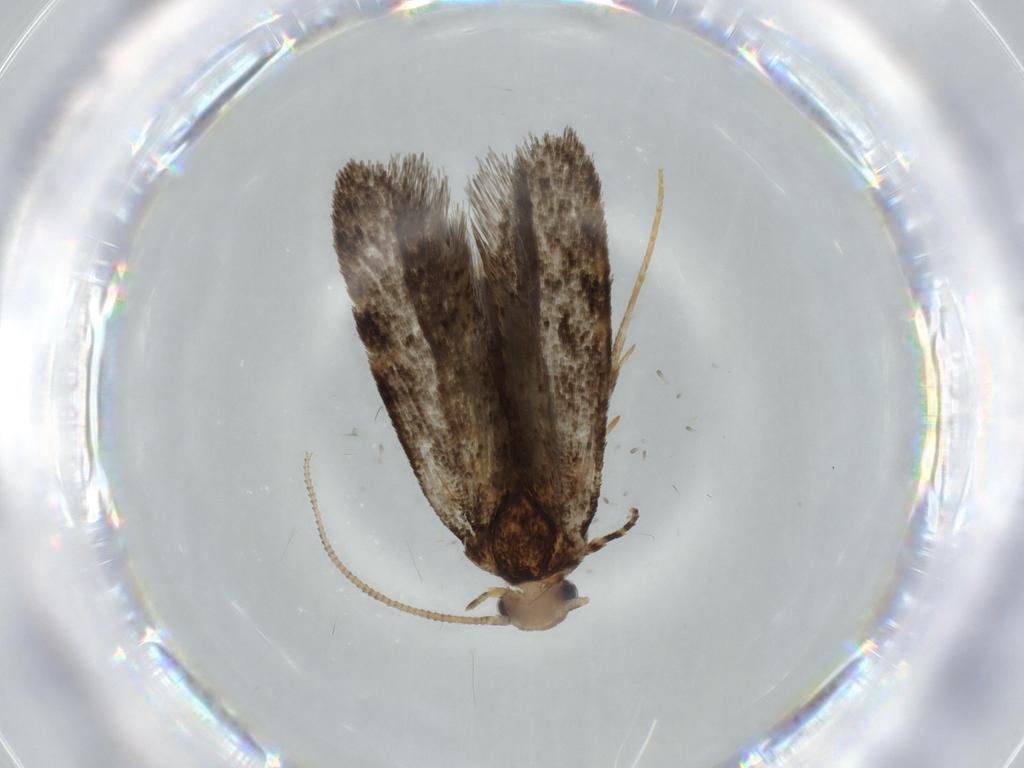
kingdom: Animalia
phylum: Arthropoda
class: Insecta
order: Lepidoptera
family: Tineidae
